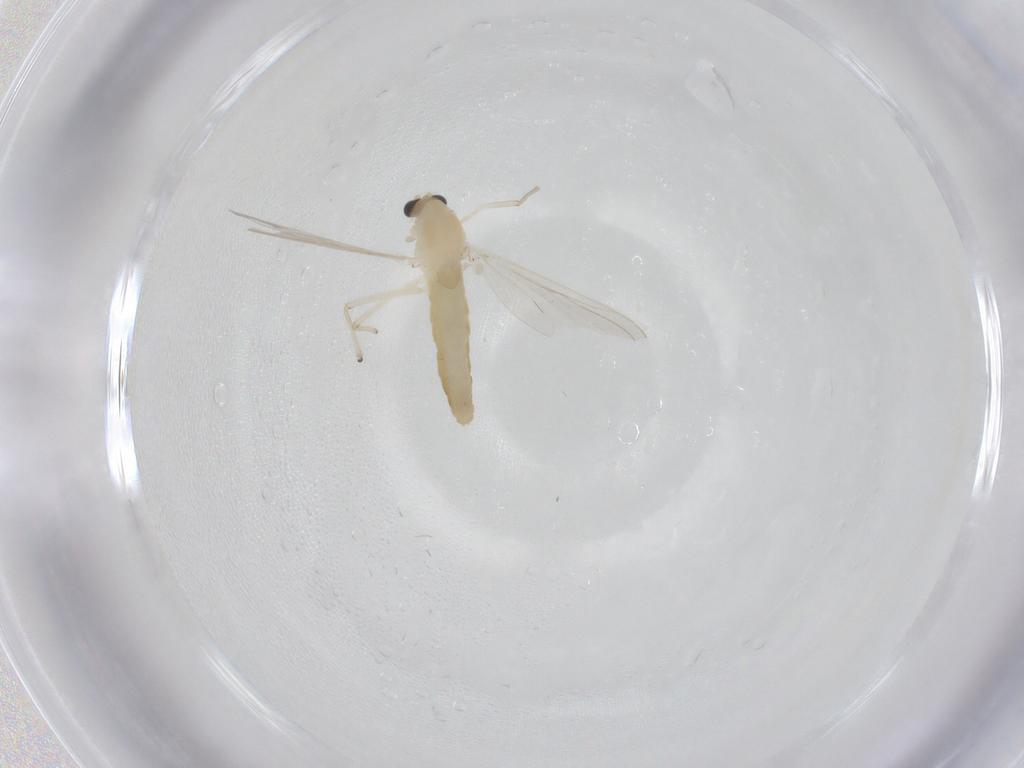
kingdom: Animalia
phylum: Arthropoda
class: Insecta
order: Diptera
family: Chironomidae
